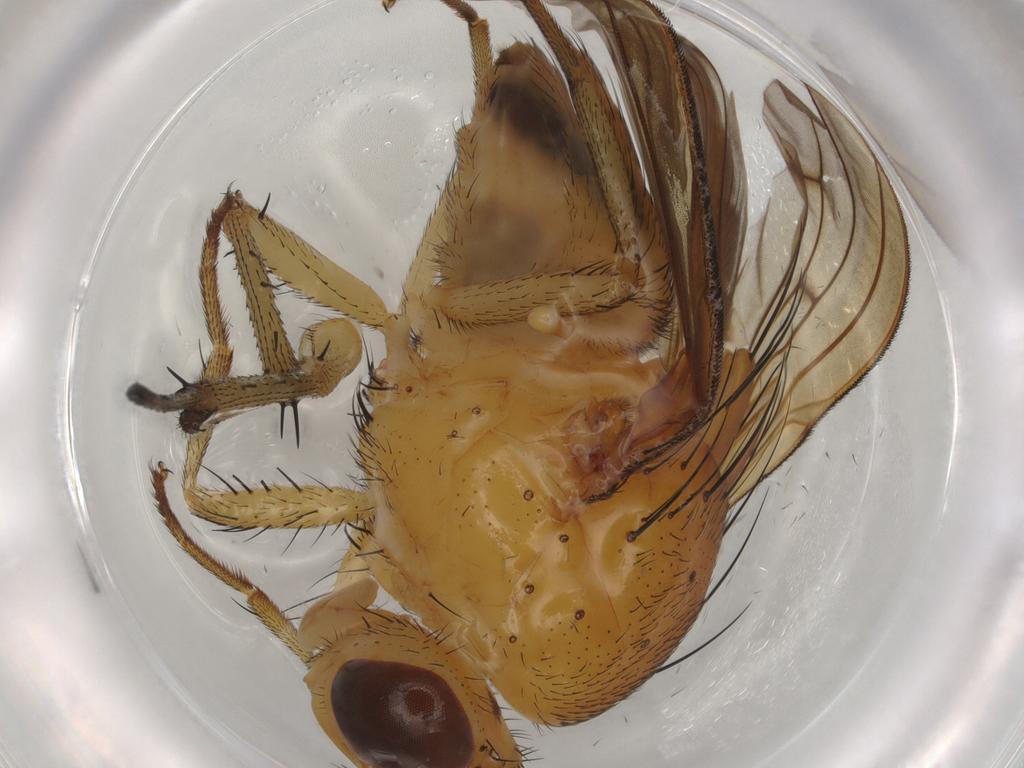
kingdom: Animalia
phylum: Arthropoda
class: Insecta
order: Diptera
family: Lauxaniidae
